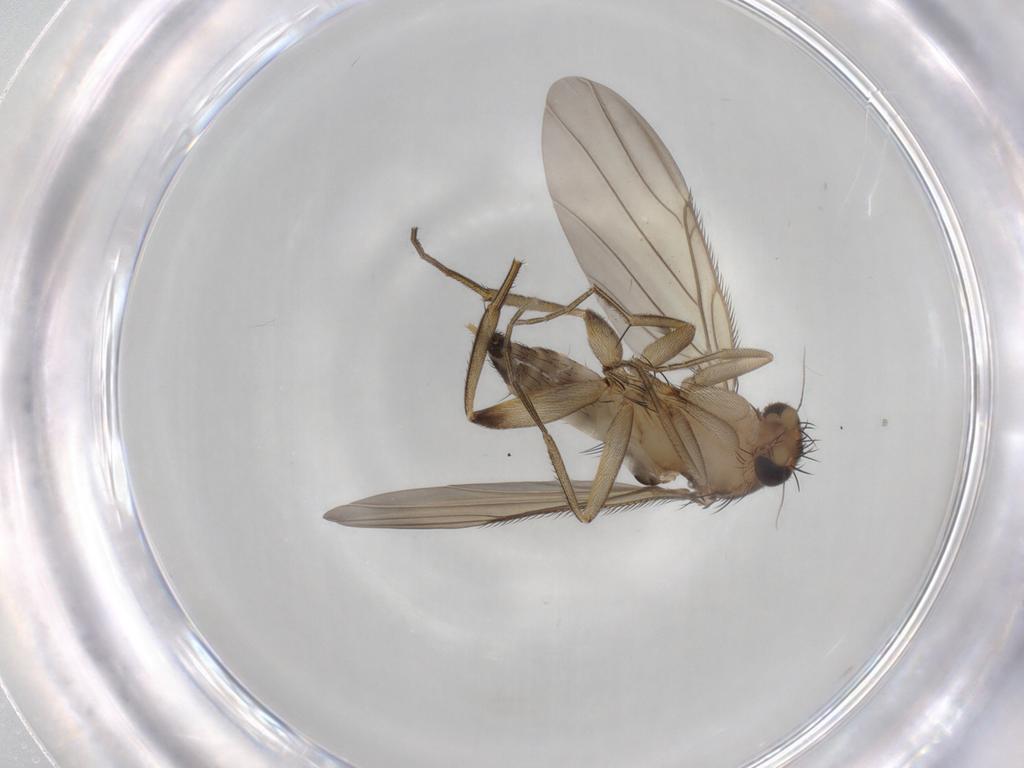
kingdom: Animalia
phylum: Arthropoda
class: Insecta
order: Diptera
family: Phoridae
